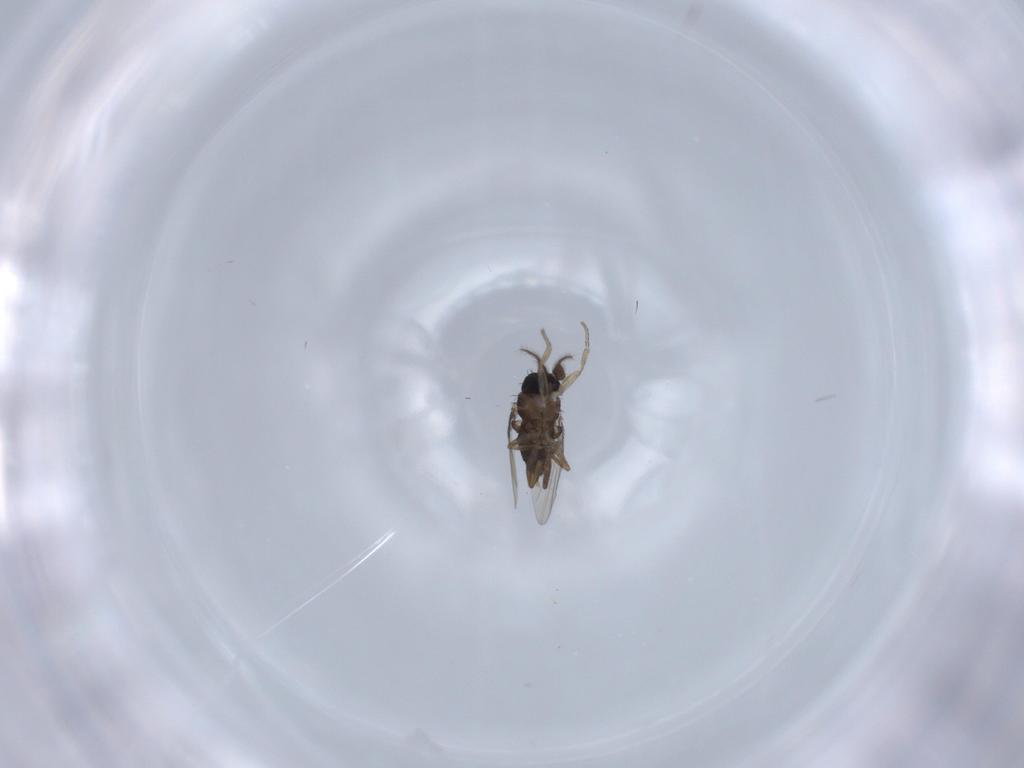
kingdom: Animalia
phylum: Arthropoda
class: Insecta
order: Diptera
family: Phoridae
